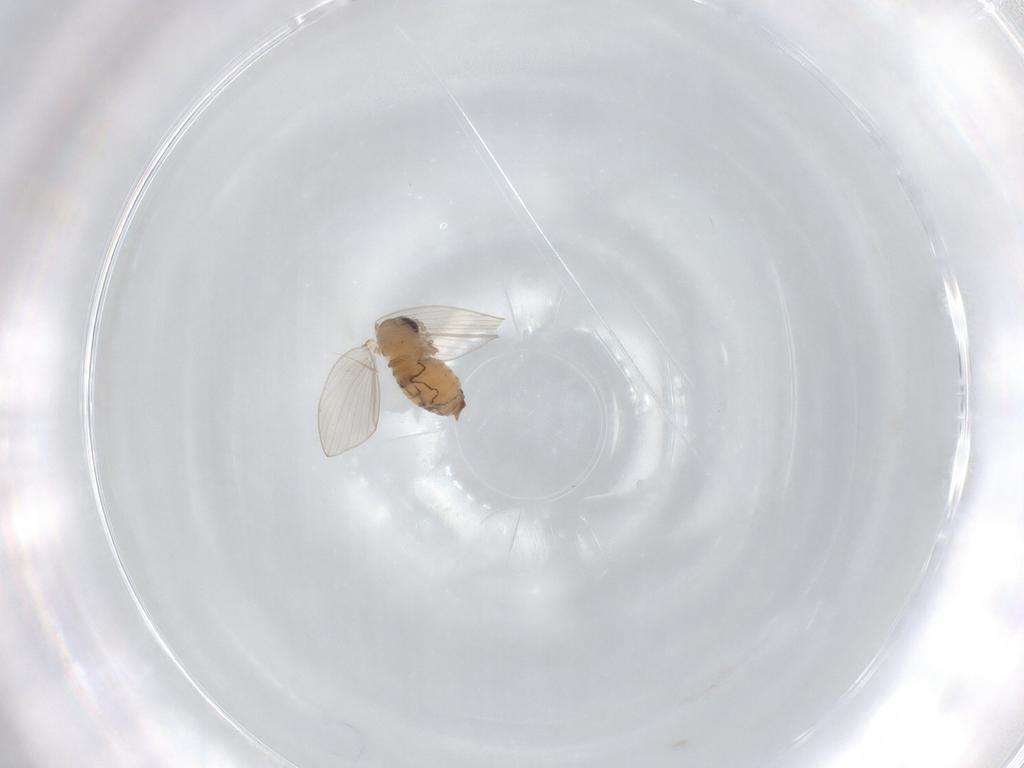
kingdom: Animalia
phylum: Arthropoda
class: Insecta
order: Diptera
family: Psychodidae
